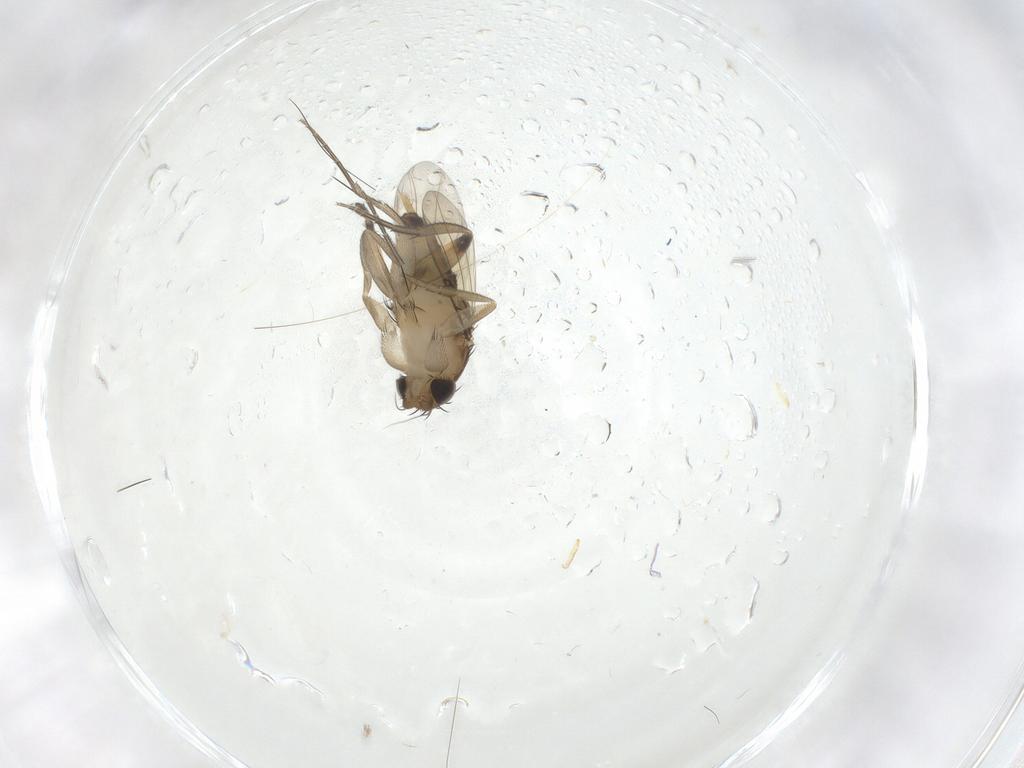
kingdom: Animalia
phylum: Arthropoda
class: Insecta
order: Diptera
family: Phoridae
